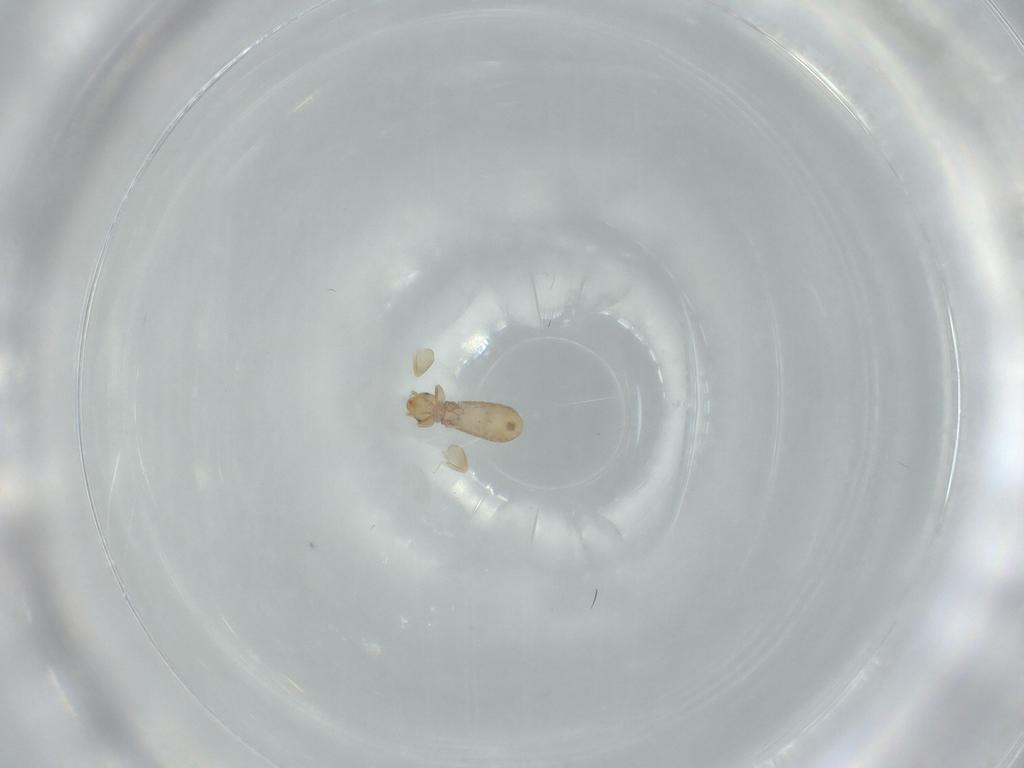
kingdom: Animalia
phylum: Arthropoda
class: Insecta
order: Psocodea
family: Liposcelididae
